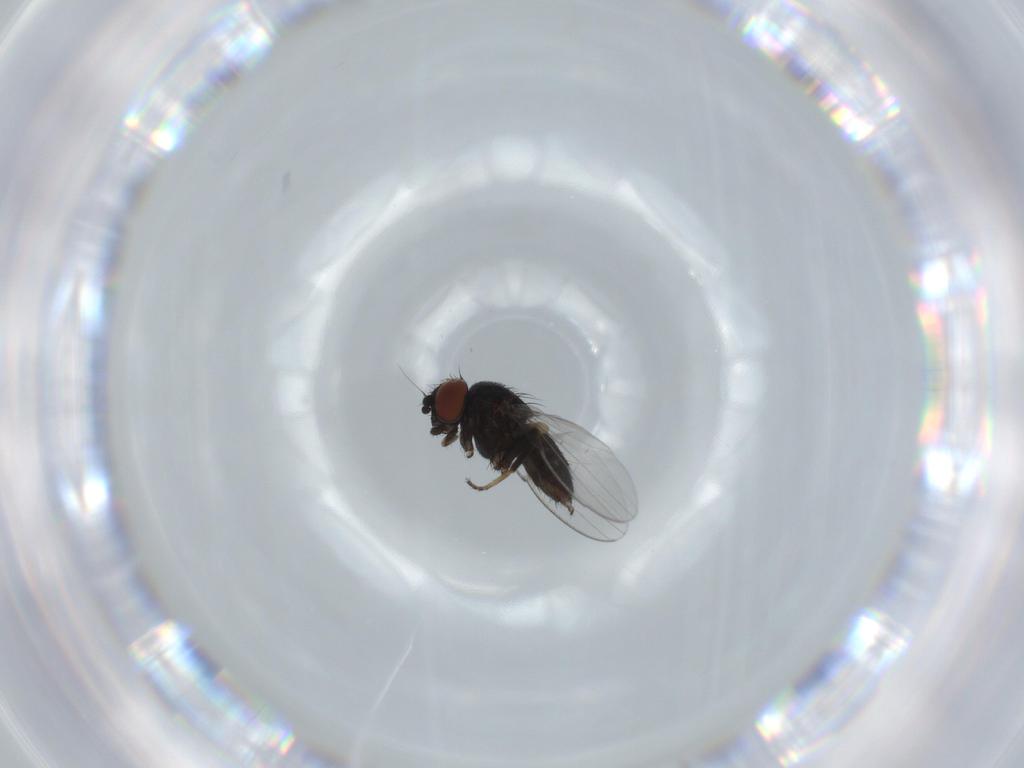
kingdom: Animalia
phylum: Arthropoda
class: Insecta
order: Diptera
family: Milichiidae
